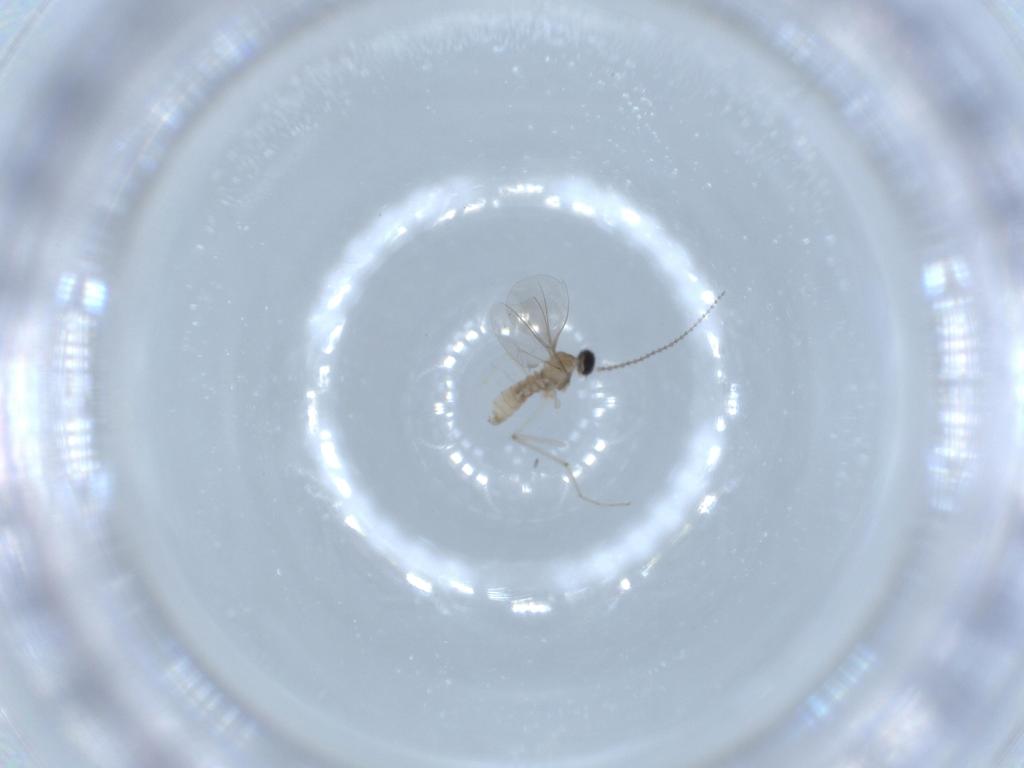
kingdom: Animalia
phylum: Arthropoda
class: Insecta
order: Diptera
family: Cecidomyiidae
